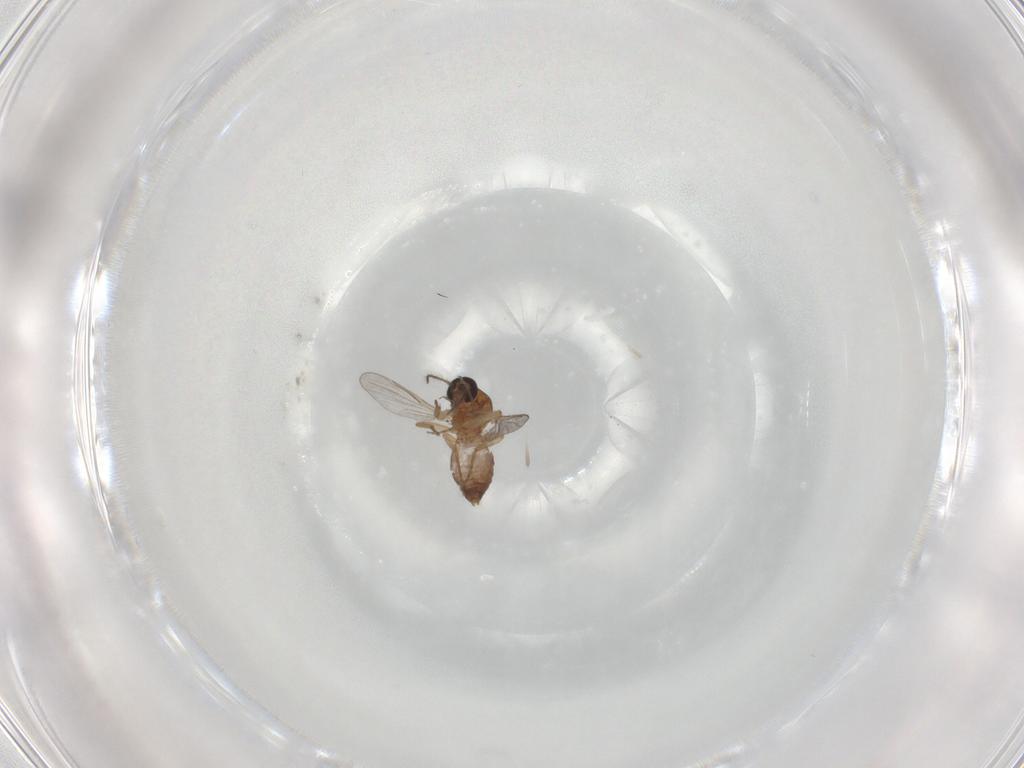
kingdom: Animalia
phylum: Arthropoda
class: Insecta
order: Diptera
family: Ceratopogonidae
